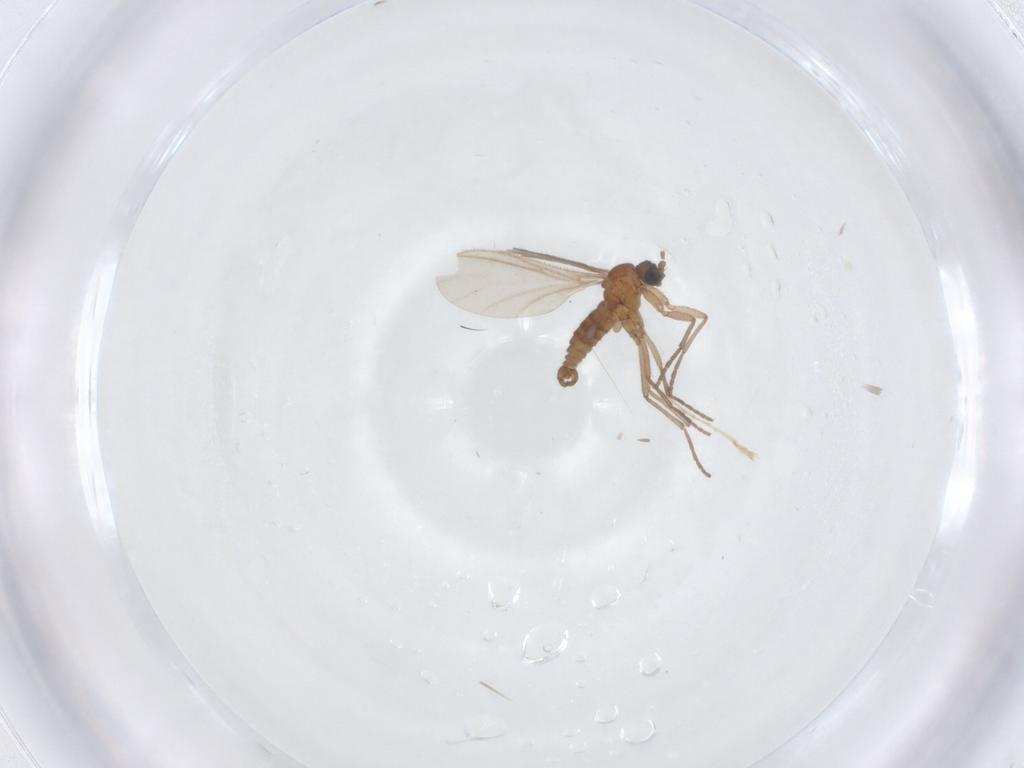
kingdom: Animalia
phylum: Arthropoda
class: Insecta
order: Diptera
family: Sciaridae
